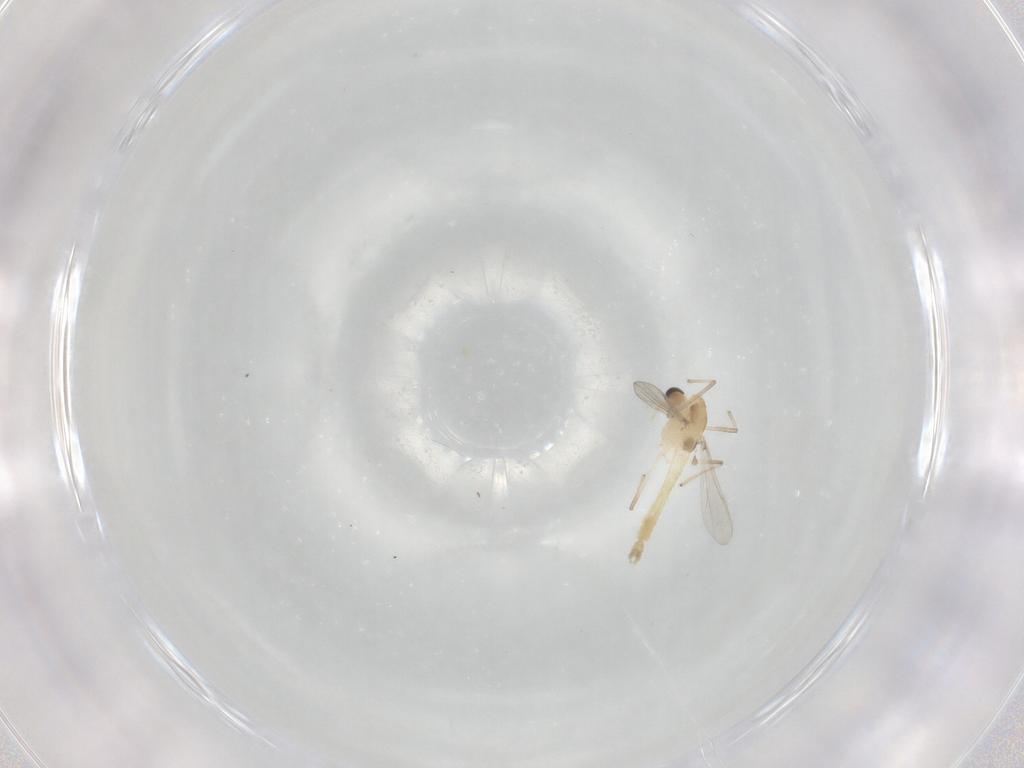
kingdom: Animalia
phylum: Arthropoda
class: Insecta
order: Diptera
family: Chironomidae
